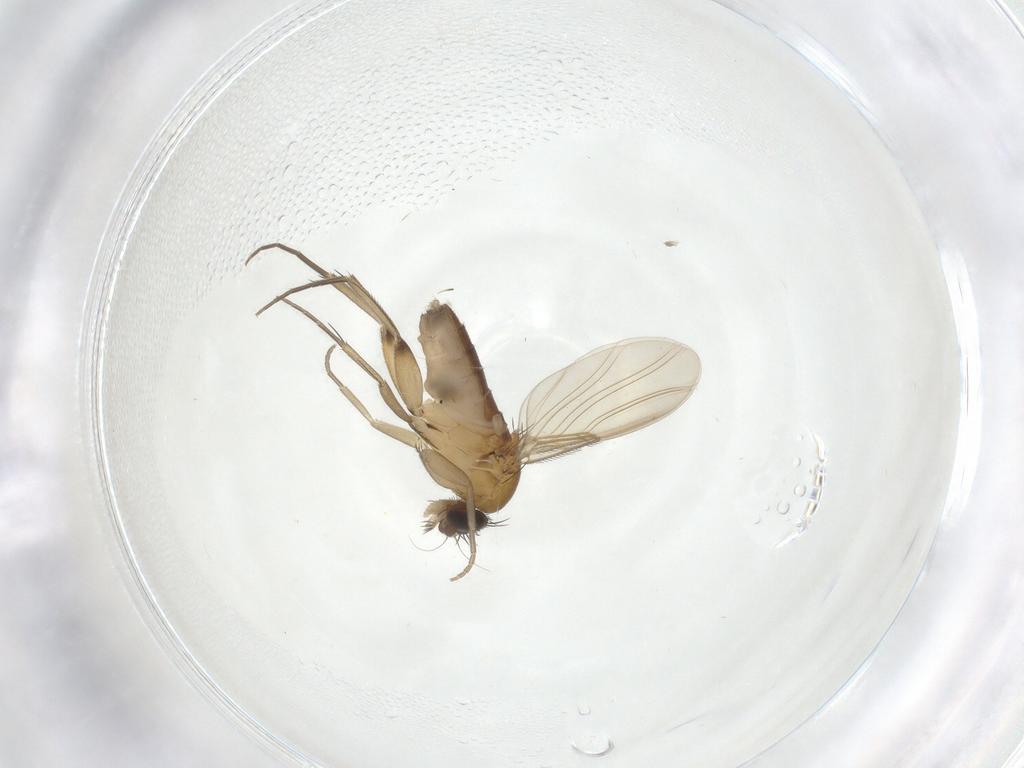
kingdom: Animalia
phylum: Arthropoda
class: Insecta
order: Diptera
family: Phoridae
